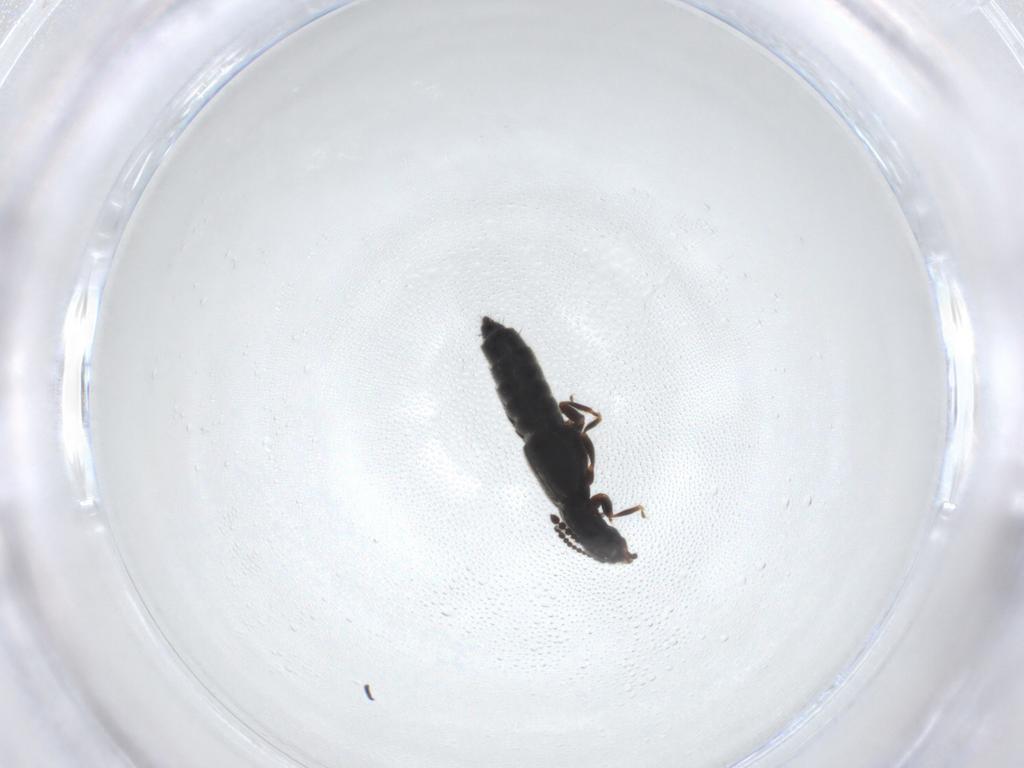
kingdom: Animalia
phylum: Arthropoda
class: Insecta
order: Coleoptera
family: Staphylinidae
